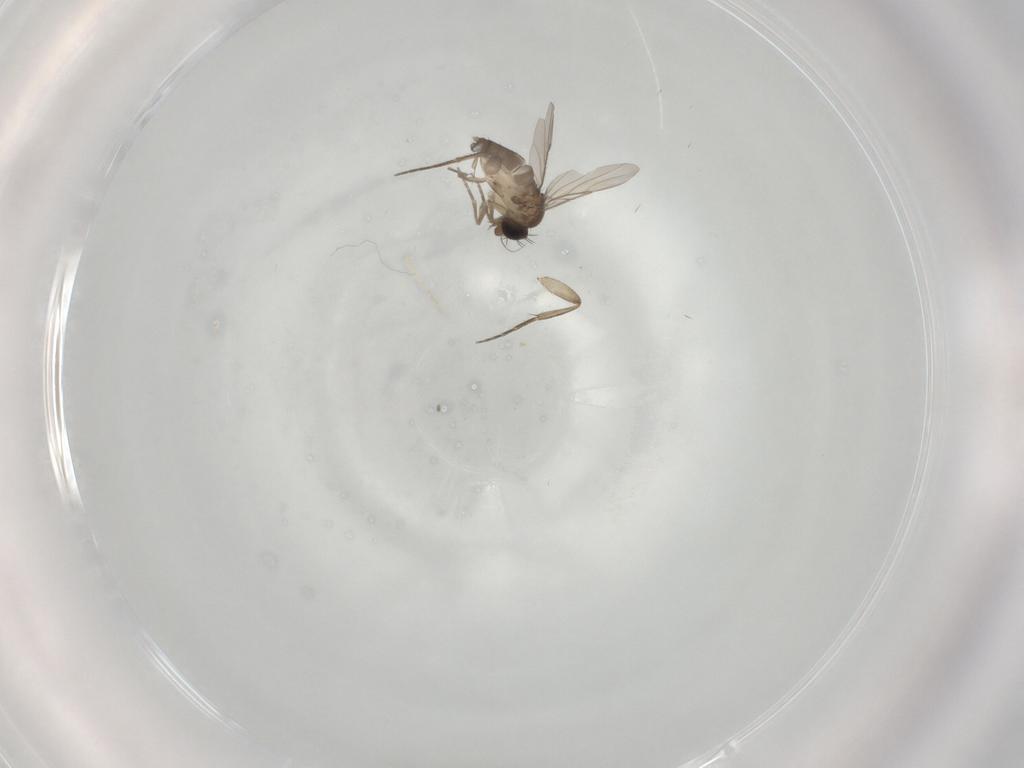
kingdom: Animalia
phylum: Arthropoda
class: Insecta
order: Diptera
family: Phoridae
